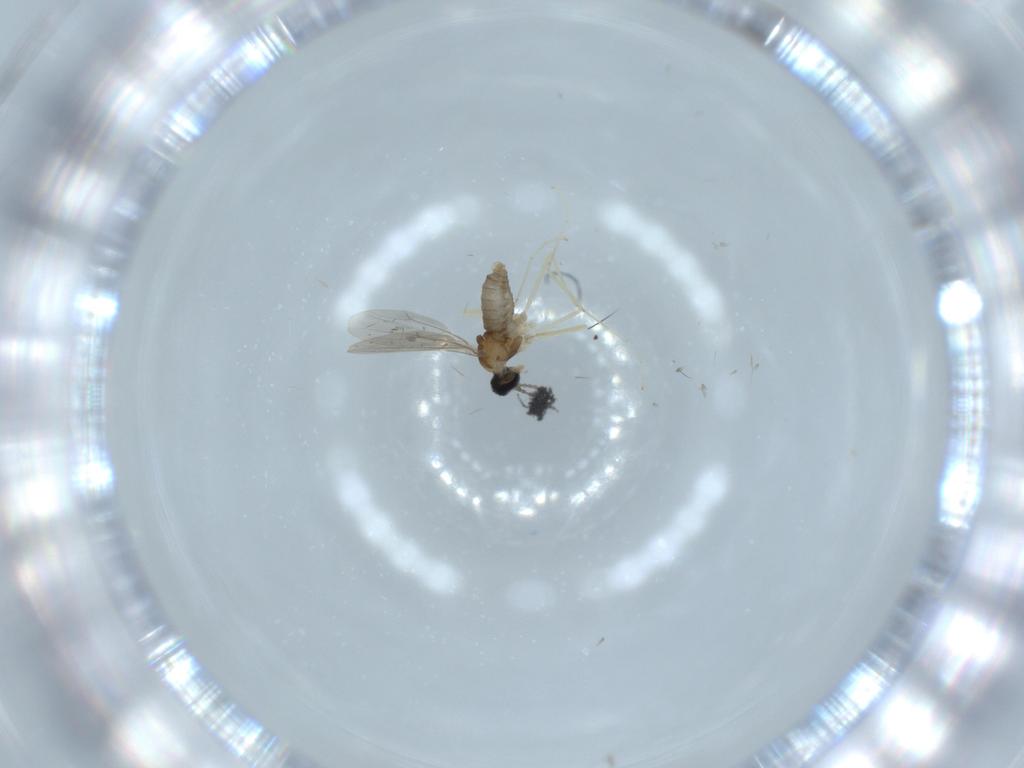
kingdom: Animalia
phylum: Arthropoda
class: Insecta
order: Diptera
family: Cecidomyiidae
